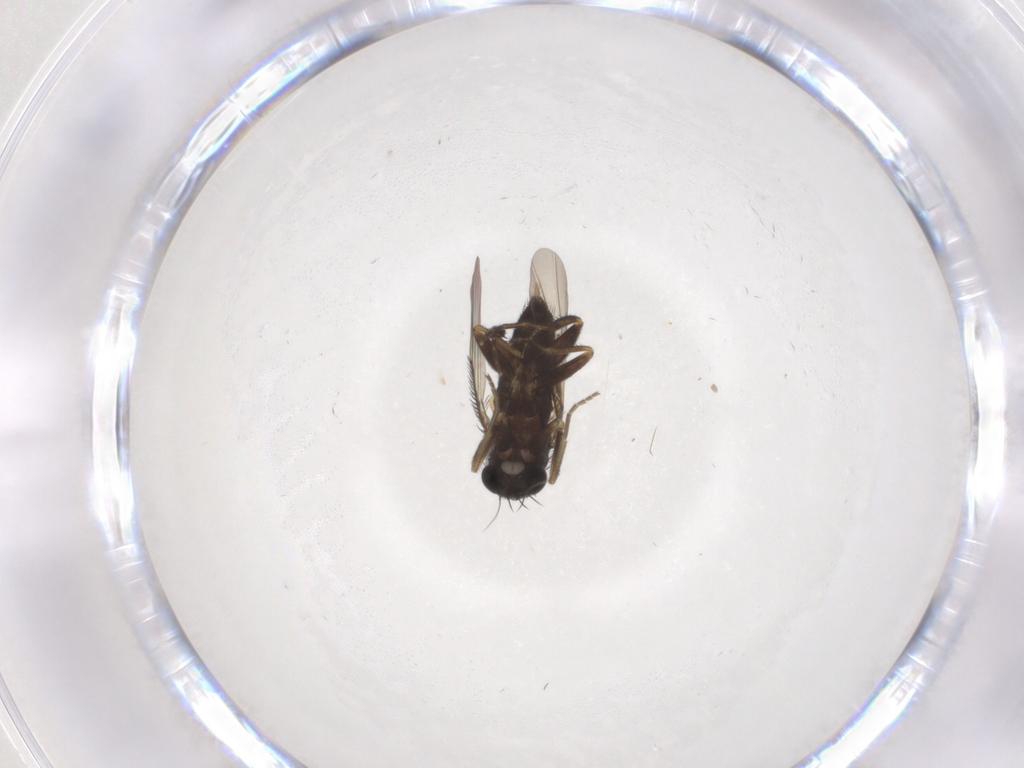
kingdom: Animalia
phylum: Arthropoda
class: Insecta
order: Diptera
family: Phoridae
